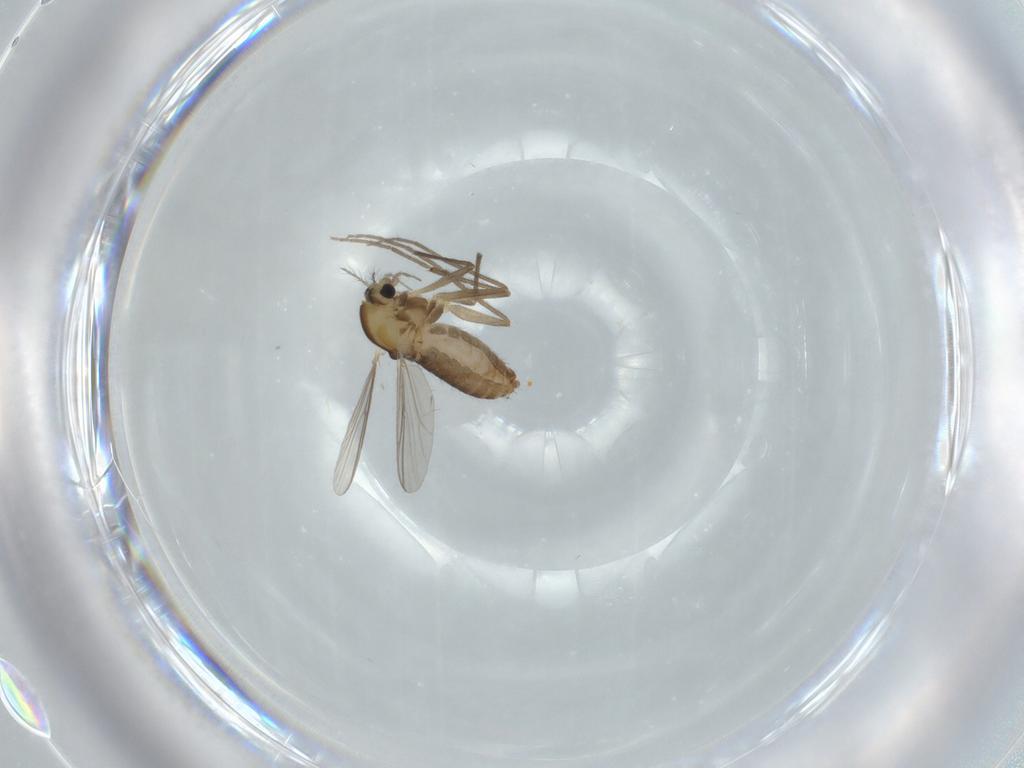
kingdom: Animalia
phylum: Arthropoda
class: Insecta
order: Diptera
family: Chironomidae
